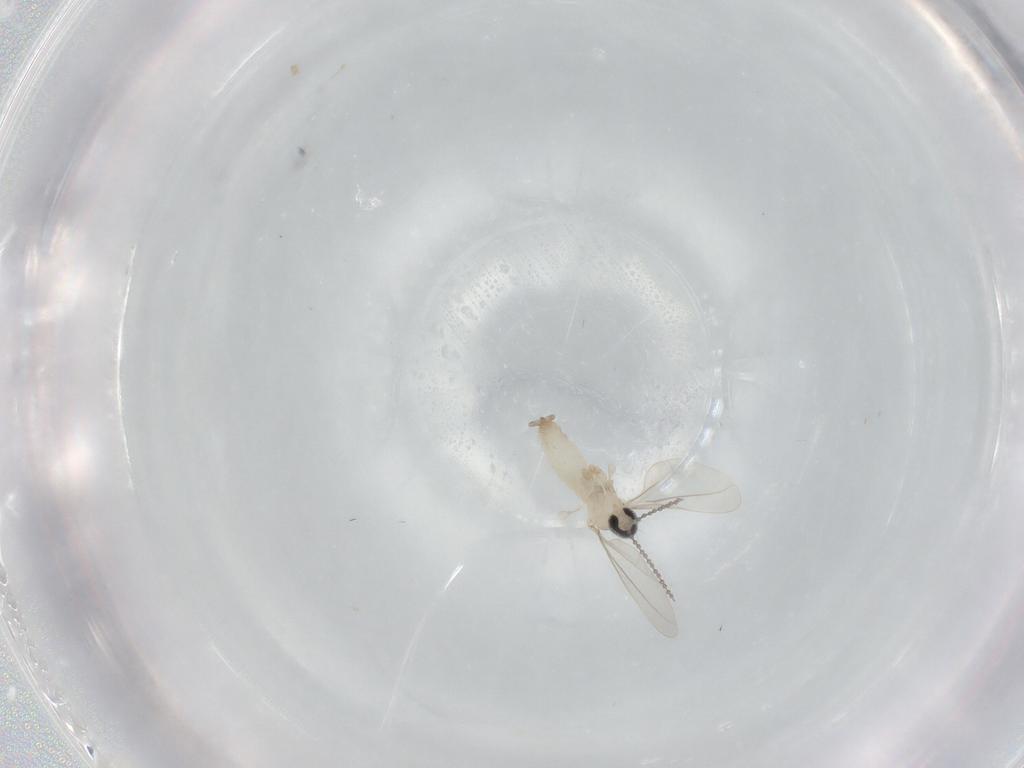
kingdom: Animalia
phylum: Arthropoda
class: Insecta
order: Diptera
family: Cecidomyiidae
